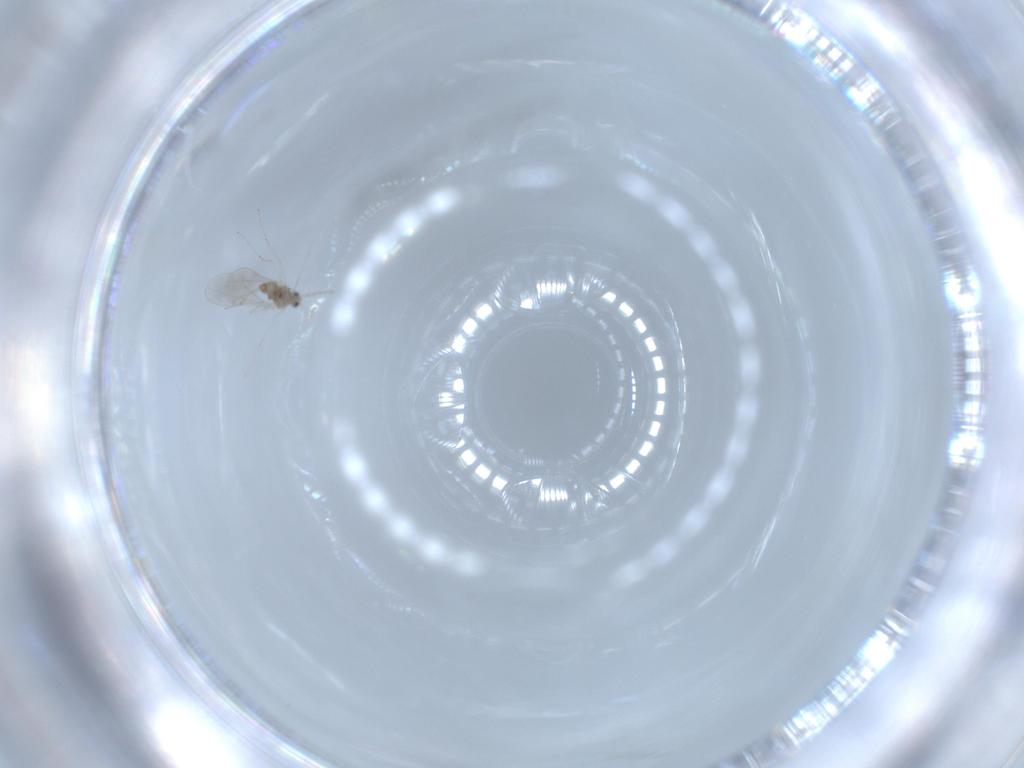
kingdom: Animalia
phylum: Arthropoda
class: Insecta
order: Diptera
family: Cecidomyiidae
